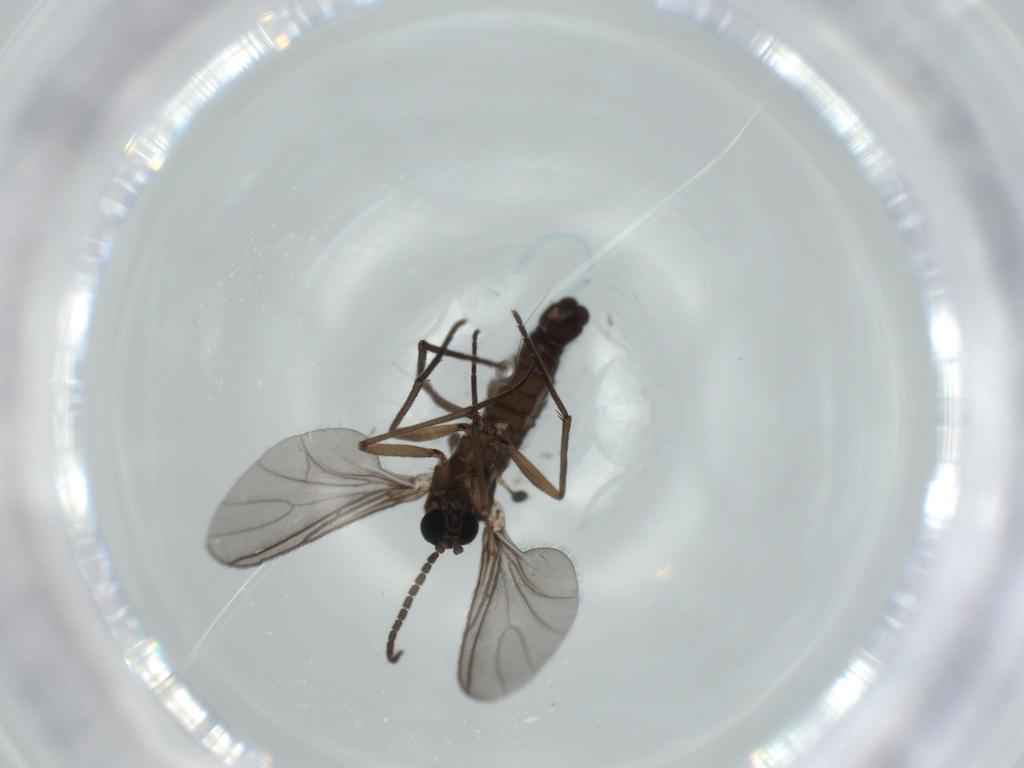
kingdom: Animalia
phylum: Arthropoda
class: Insecta
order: Diptera
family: Sciaridae
